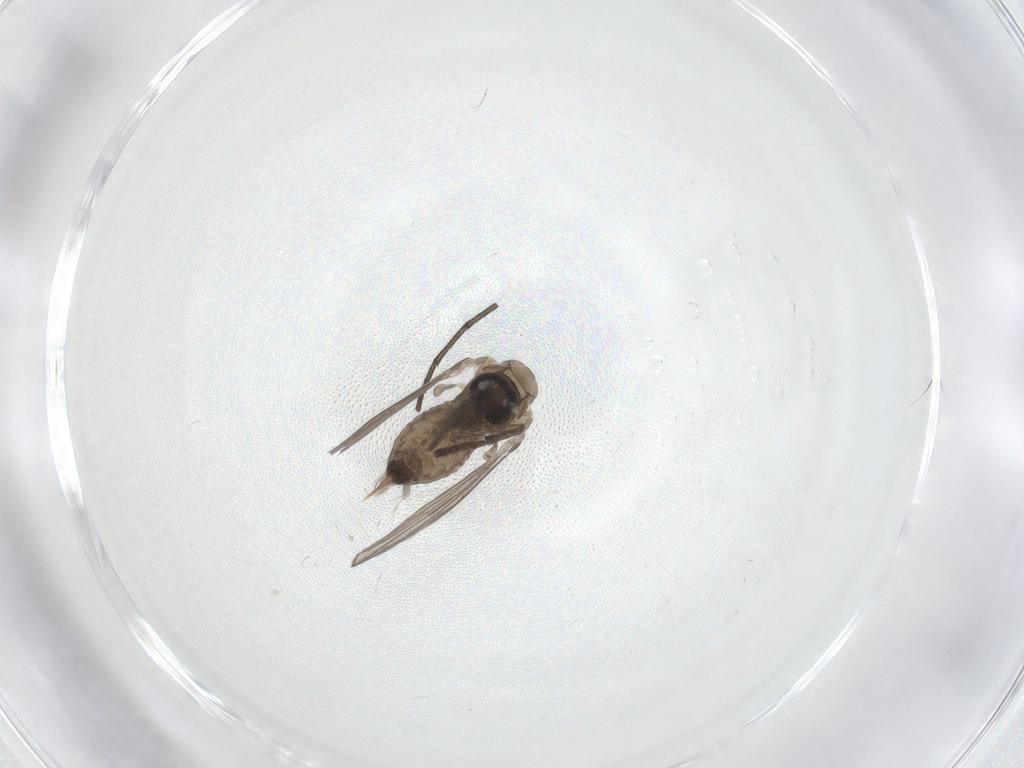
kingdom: Animalia
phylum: Arthropoda
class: Insecta
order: Diptera
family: Psychodidae
